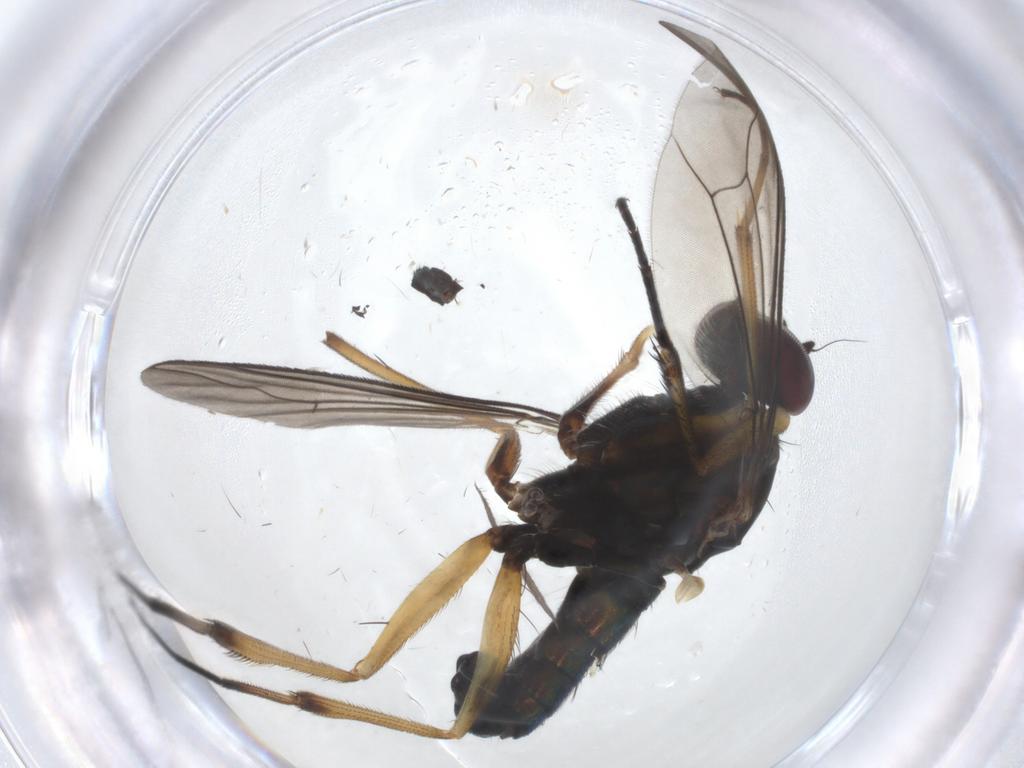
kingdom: Animalia
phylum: Arthropoda
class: Insecta
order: Diptera
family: Tachinidae
